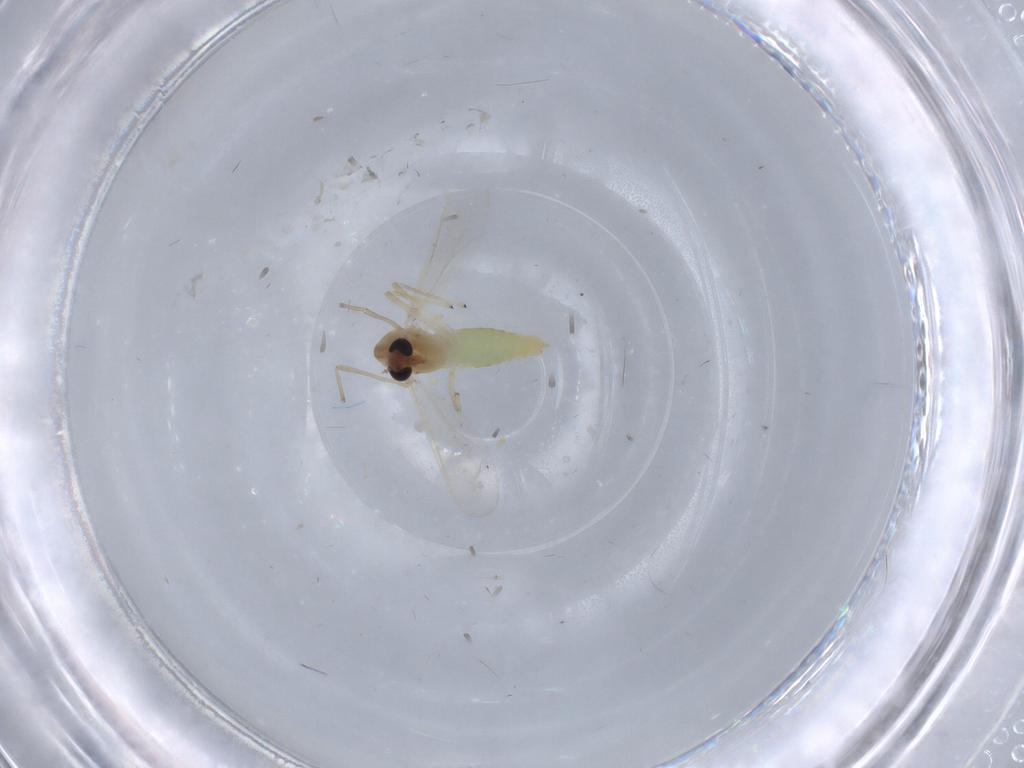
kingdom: Animalia
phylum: Arthropoda
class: Insecta
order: Diptera
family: Chironomidae
